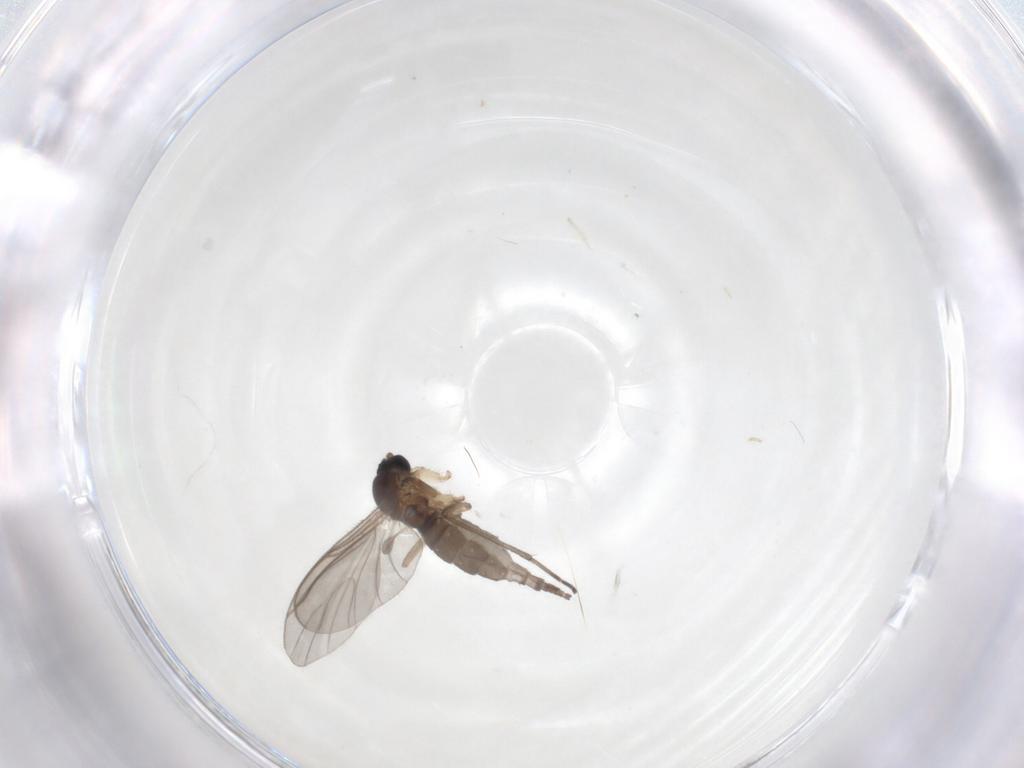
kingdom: Animalia
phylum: Arthropoda
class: Insecta
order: Diptera
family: Sciaridae
